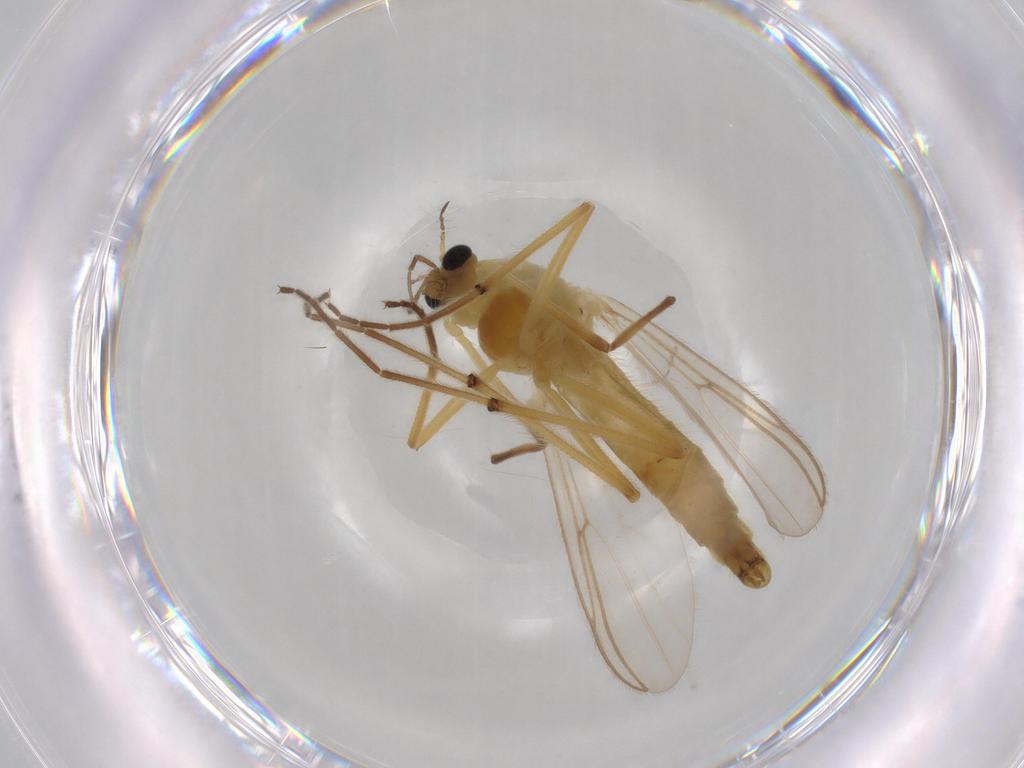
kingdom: Animalia
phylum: Arthropoda
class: Insecta
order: Diptera
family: Chironomidae
